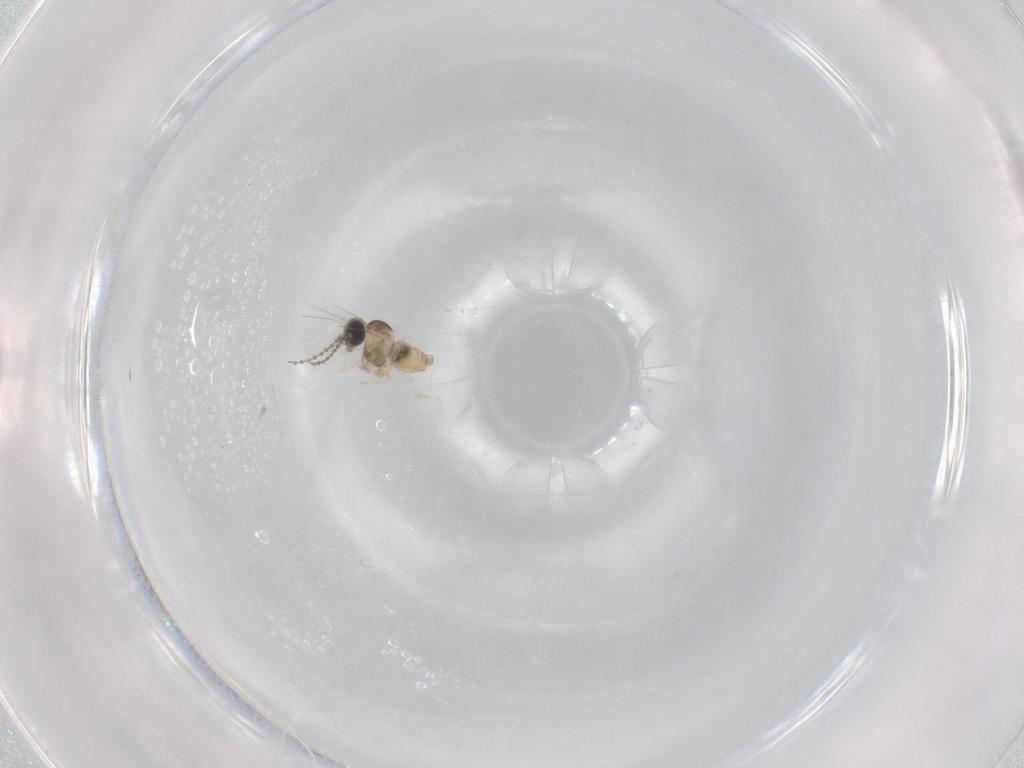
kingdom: Animalia
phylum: Arthropoda
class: Insecta
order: Diptera
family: Cecidomyiidae
